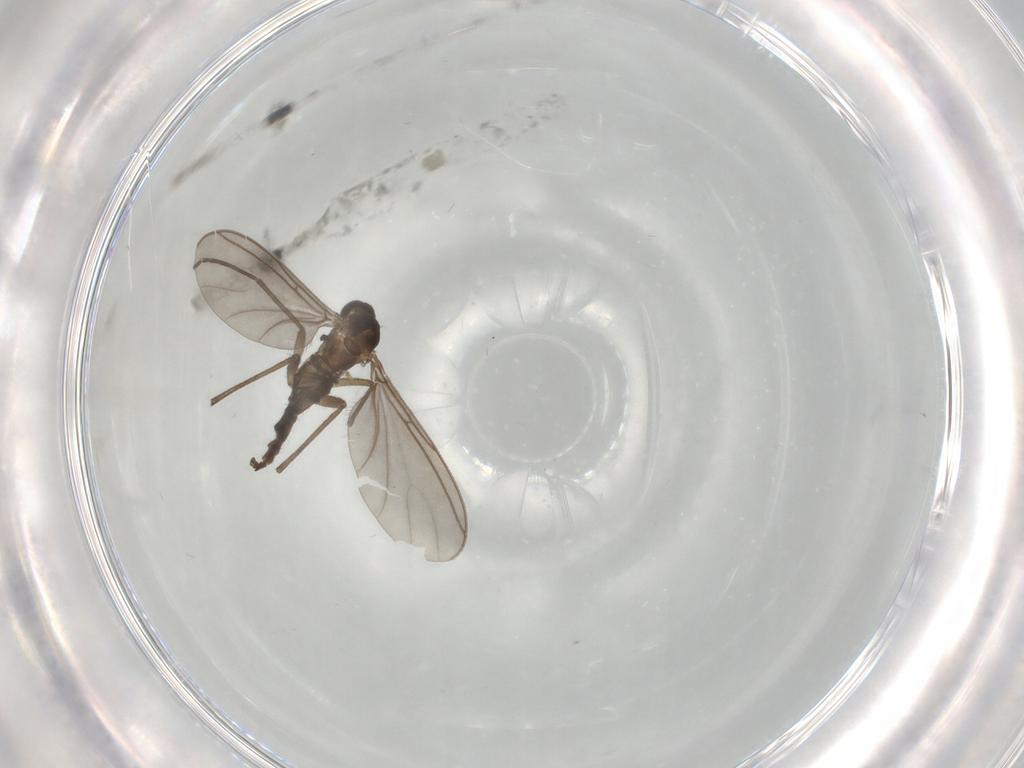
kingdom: Animalia
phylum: Arthropoda
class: Insecta
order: Diptera
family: Sciaridae
